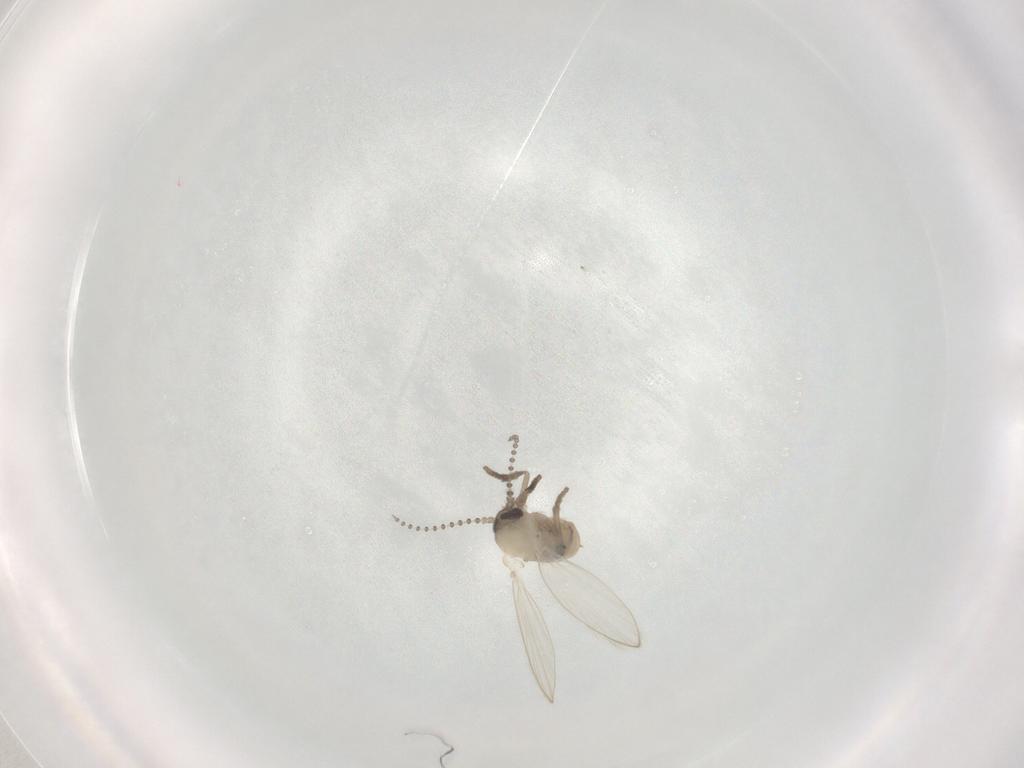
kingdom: Animalia
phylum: Arthropoda
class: Insecta
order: Diptera
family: Psychodidae
